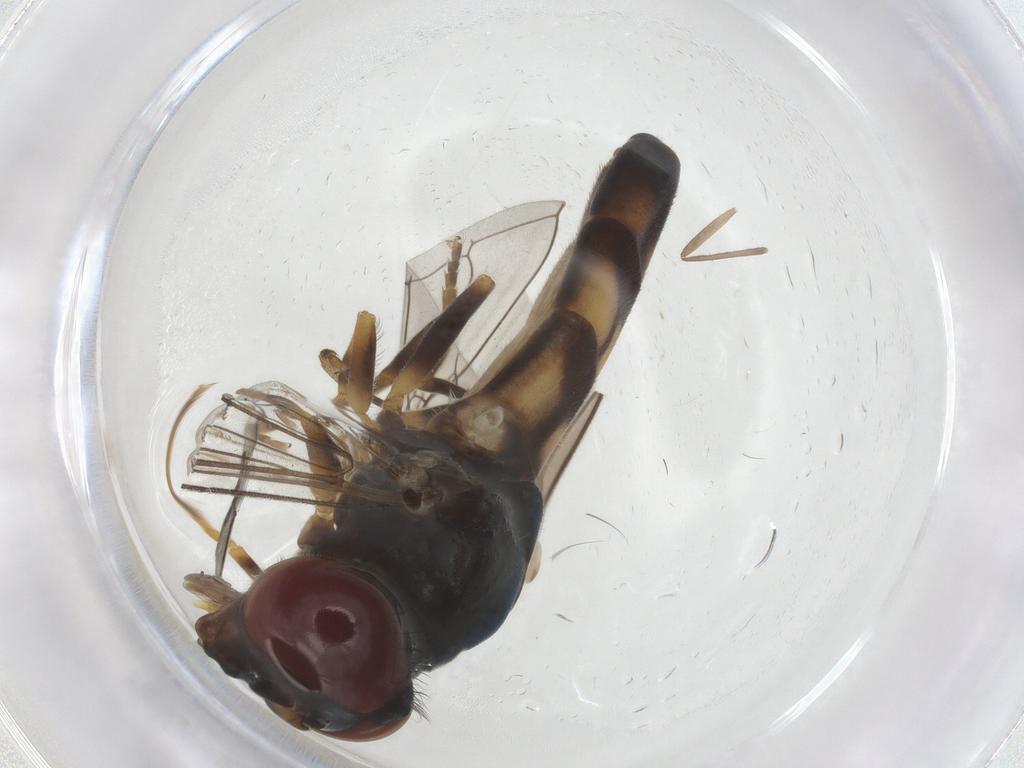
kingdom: Animalia
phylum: Arthropoda
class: Insecta
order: Diptera
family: Syrphidae
